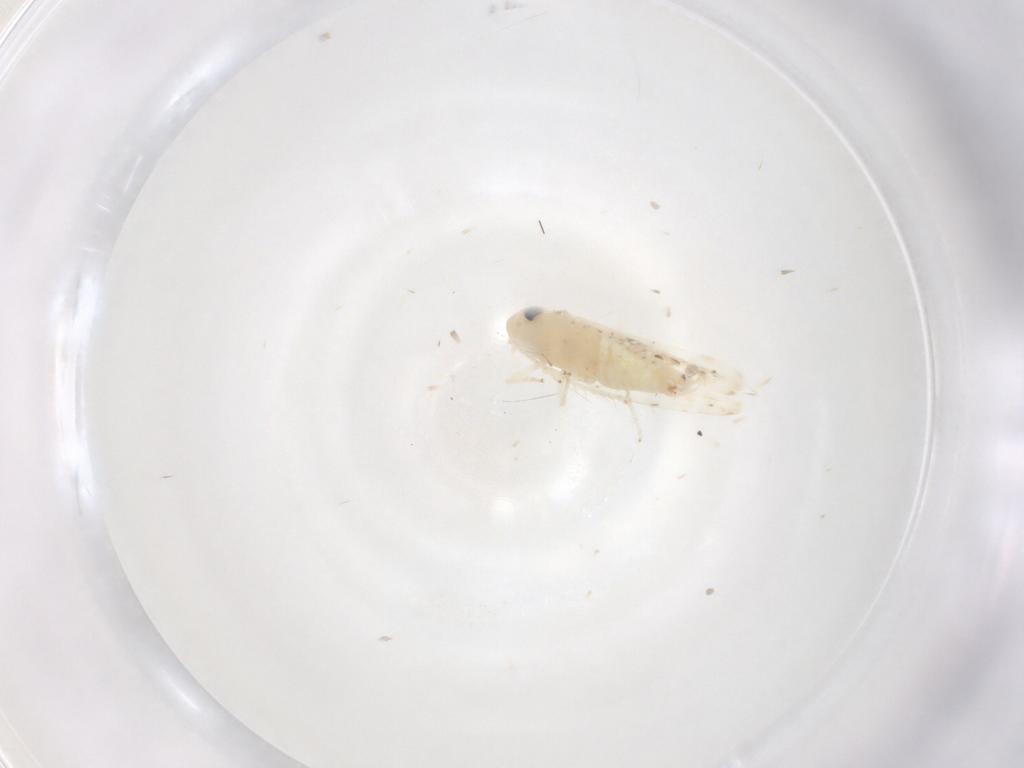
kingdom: Animalia
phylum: Arthropoda
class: Insecta
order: Hemiptera
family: Cicadellidae
